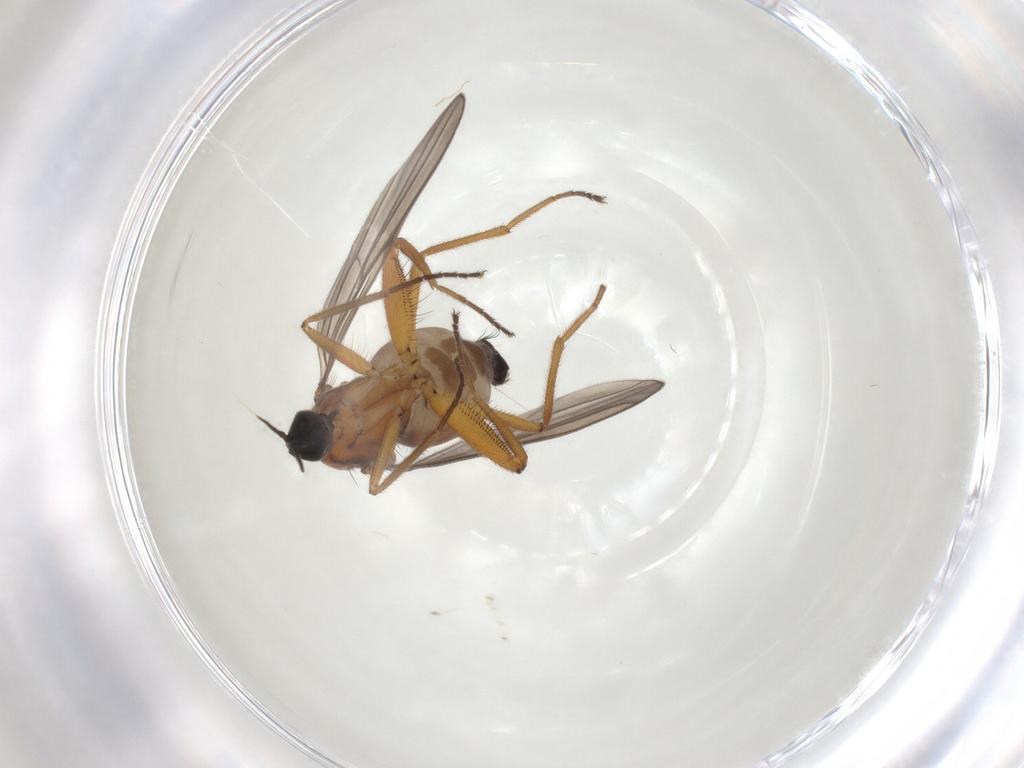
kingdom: Animalia
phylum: Arthropoda
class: Insecta
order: Diptera
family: Hybotidae
